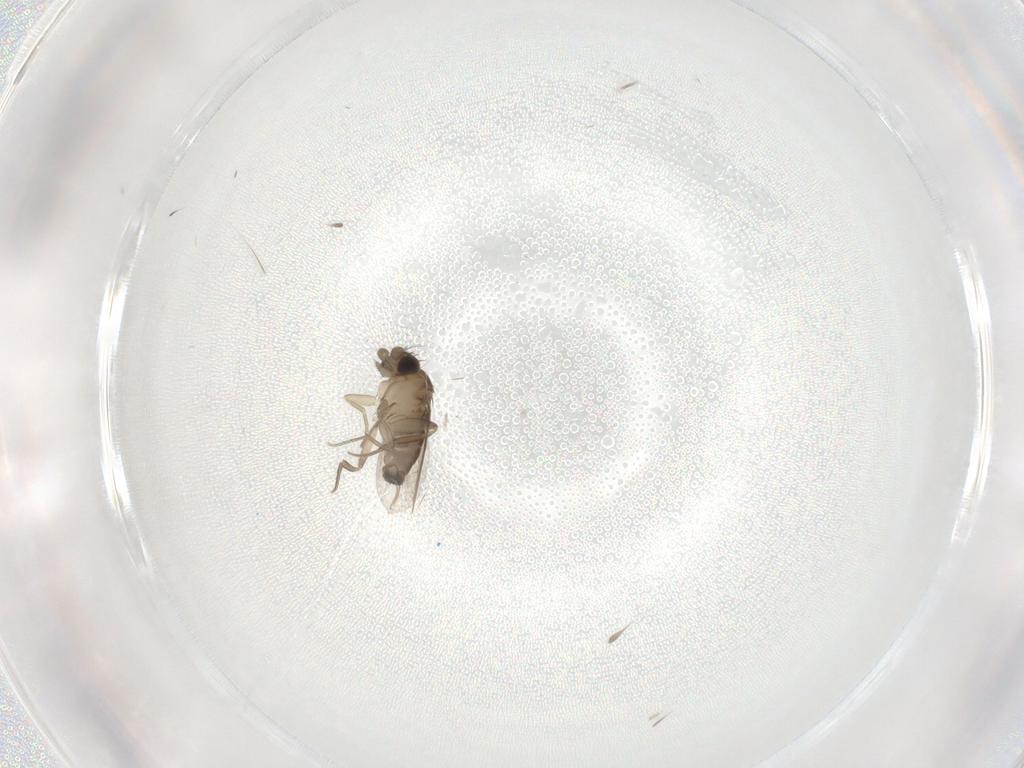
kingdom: Animalia
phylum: Arthropoda
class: Insecta
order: Diptera
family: Phoridae
